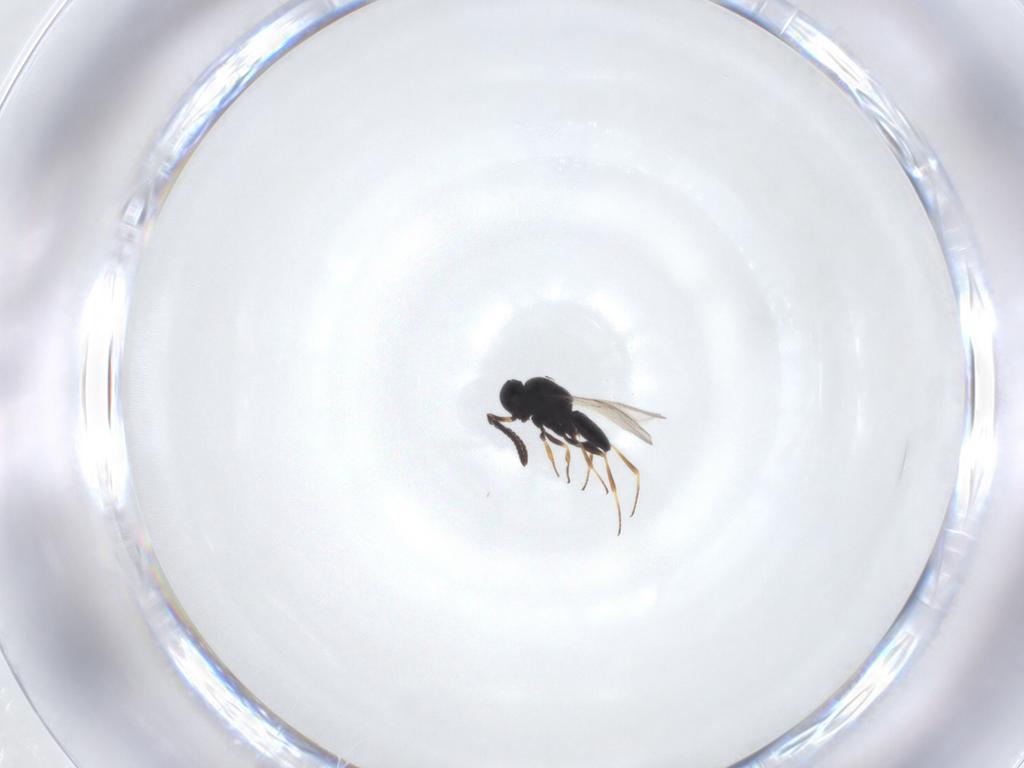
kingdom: Animalia
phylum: Arthropoda
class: Insecta
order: Hymenoptera
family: Scelionidae
